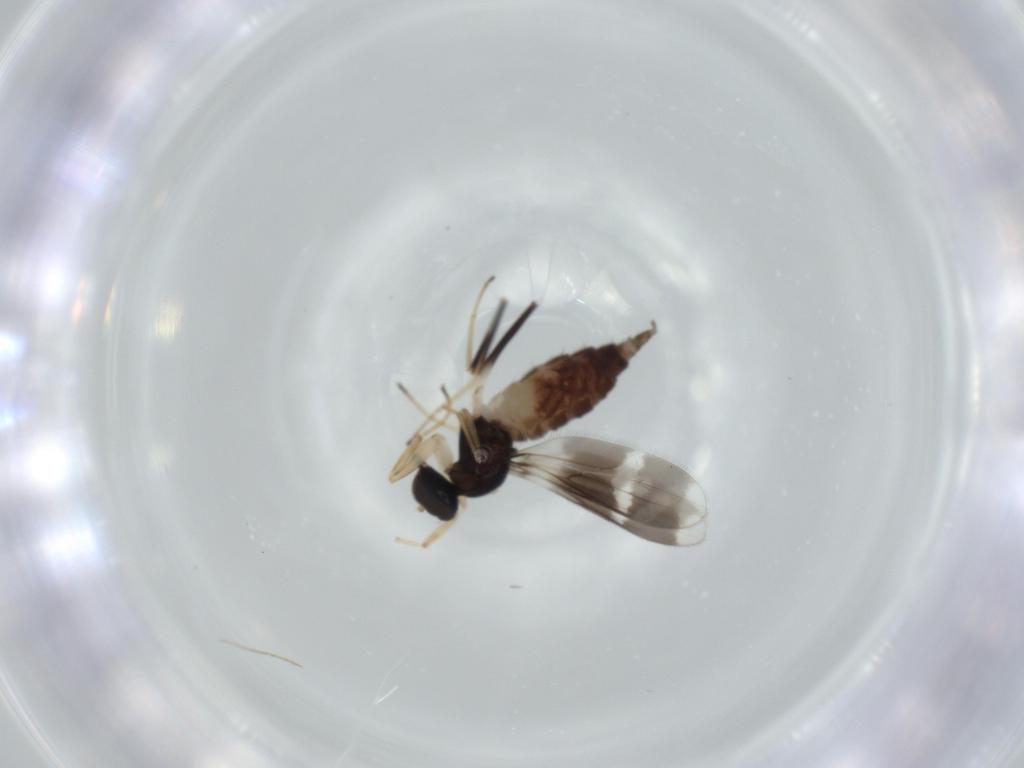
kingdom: Animalia
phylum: Arthropoda
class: Insecta
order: Diptera
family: Hybotidae
